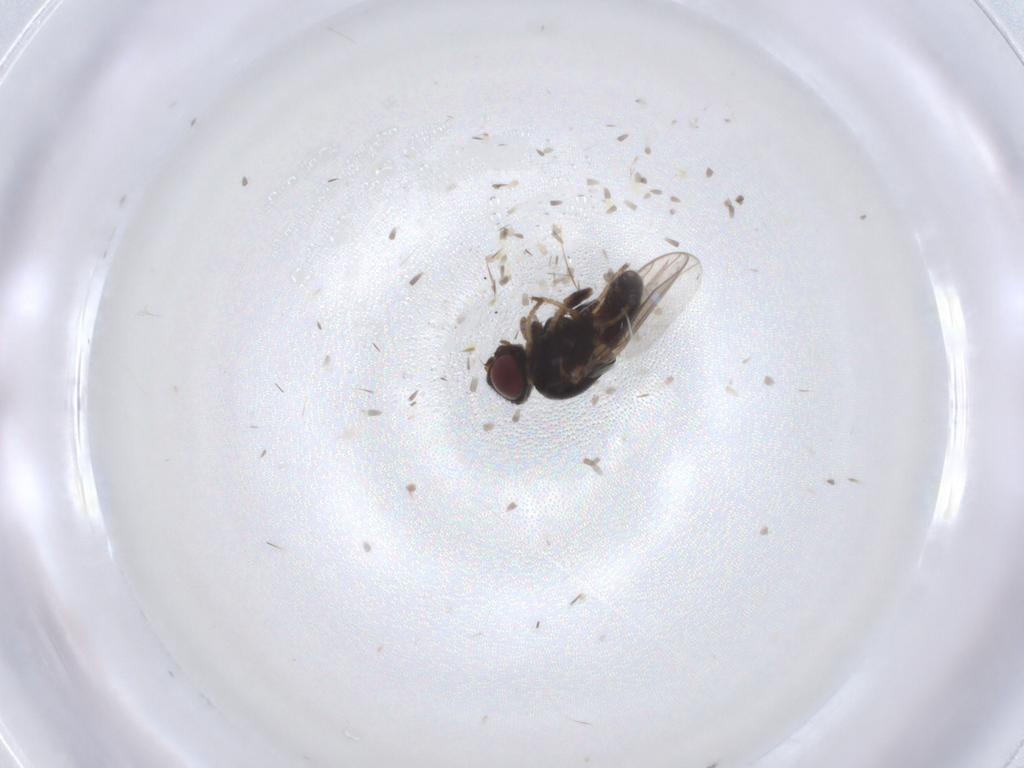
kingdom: Animalia
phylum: Arthropoda
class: Insecta
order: Diptera
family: Chloropidae
